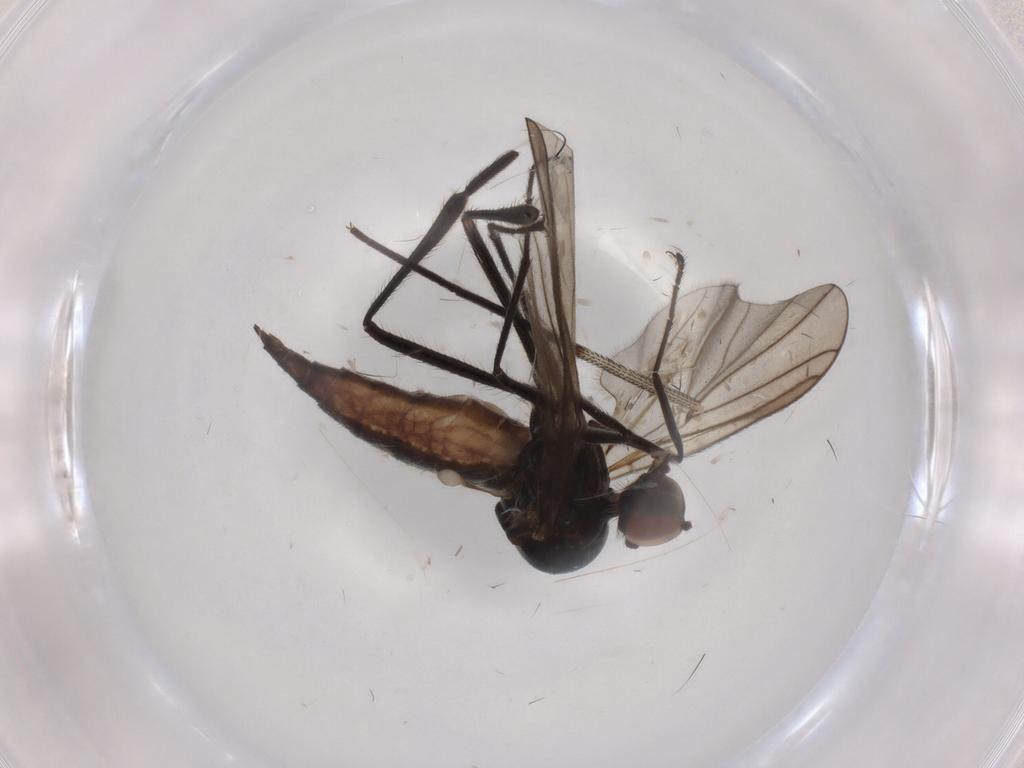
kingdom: Animalia
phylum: Arthropoda
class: Insecta
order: Diptera
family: Hybotidae
